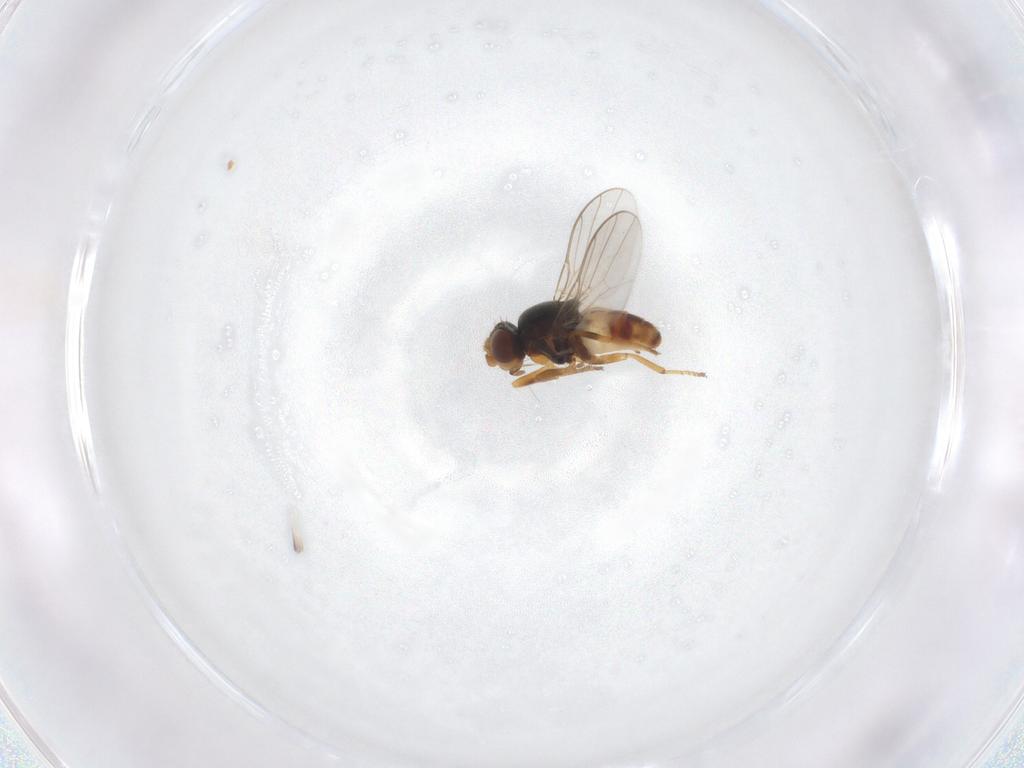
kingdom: Animalia
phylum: Arthropoda
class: Insecta
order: Diptera
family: Chloropidae
